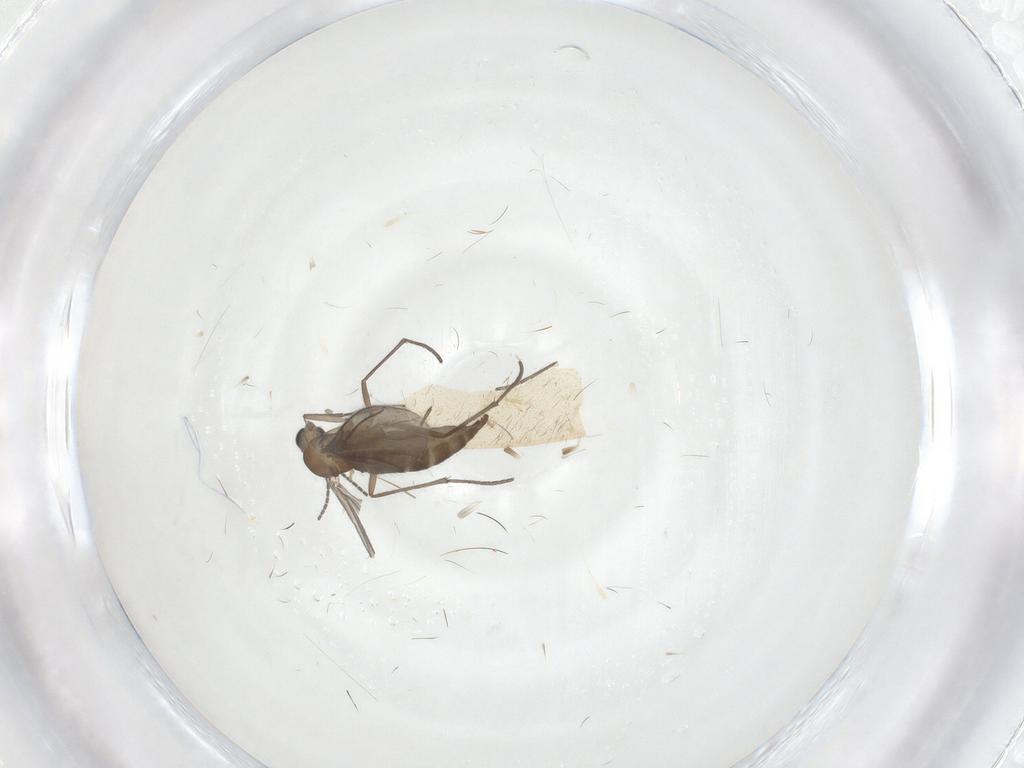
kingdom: Animalia
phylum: Arthropoda
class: Insecta
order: Diptera
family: Sciaridae
